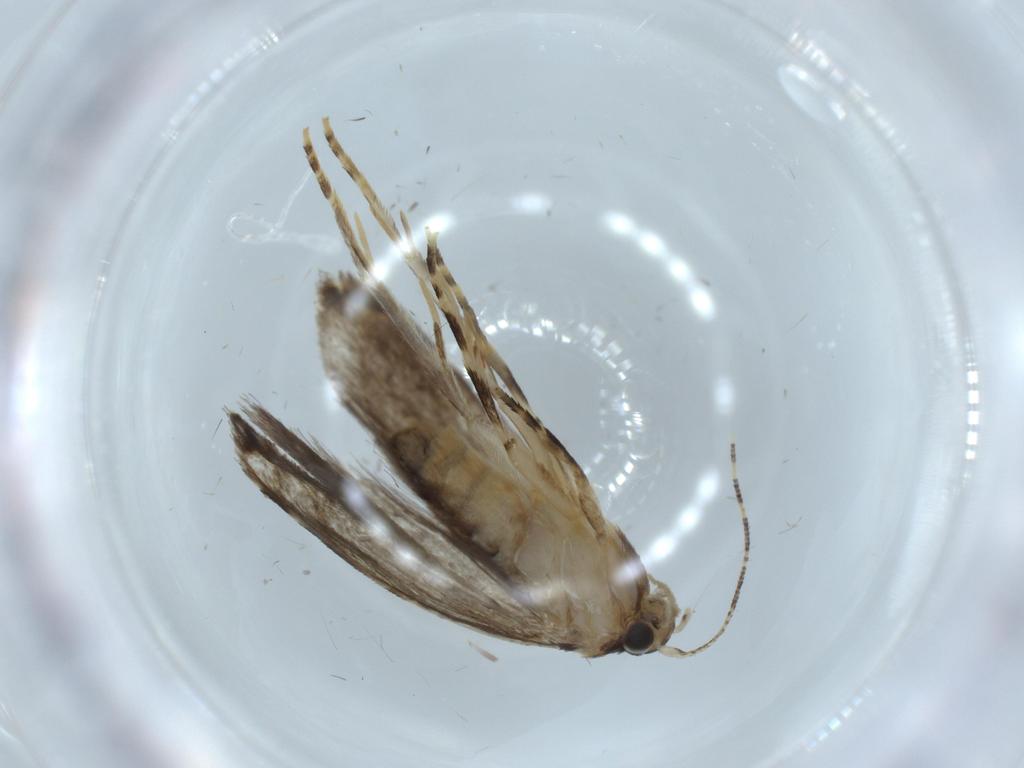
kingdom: Animalia
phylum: Arthropoda
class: Insecta
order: Lepidoptera
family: Tineidae
